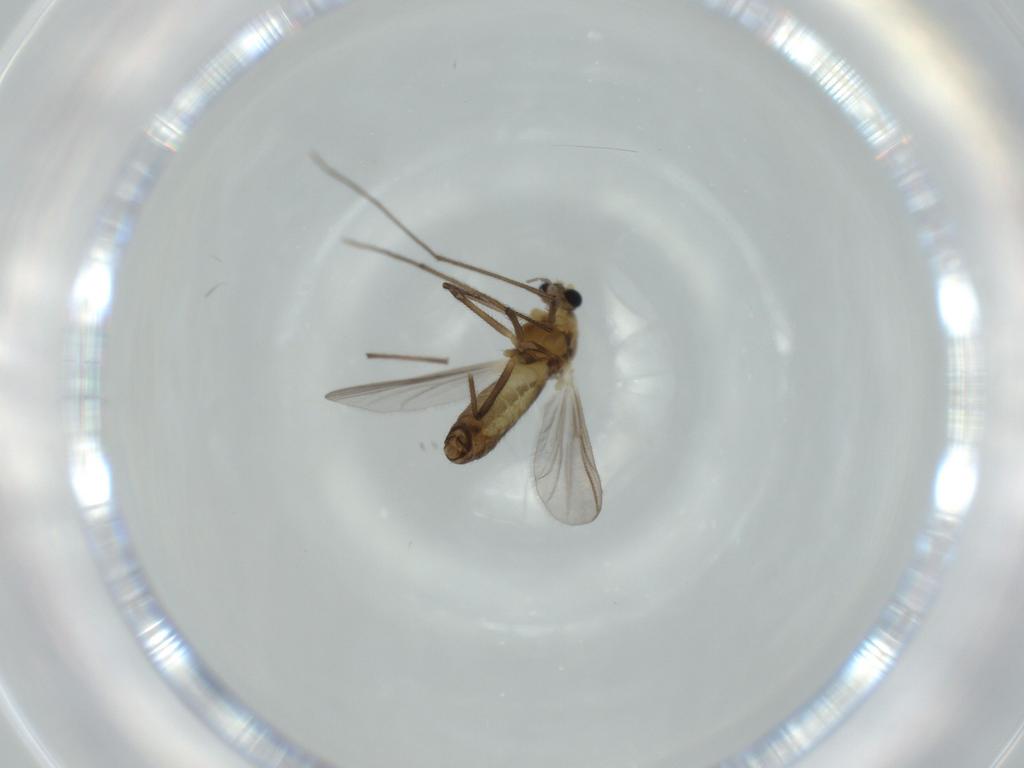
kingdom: Animalia
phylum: Arthropoda
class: Insecta
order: Diptera
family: Chironomidae
